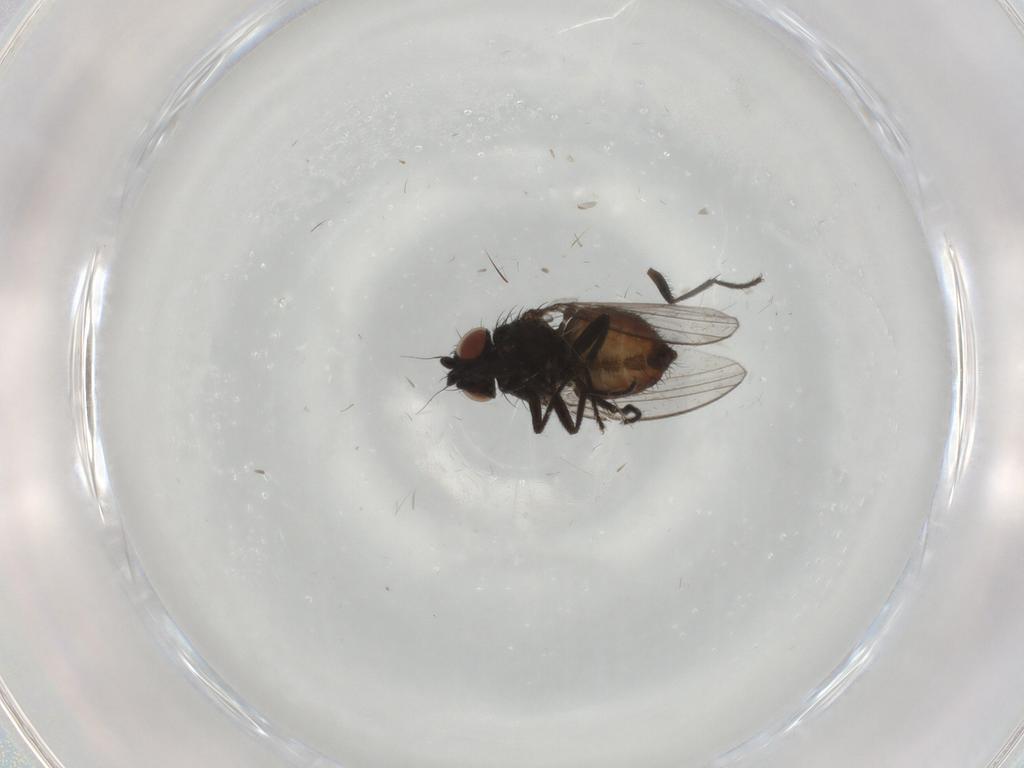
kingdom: Animalia
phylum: Arthropoda
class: Insecta
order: Diptera
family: Milichiidae
